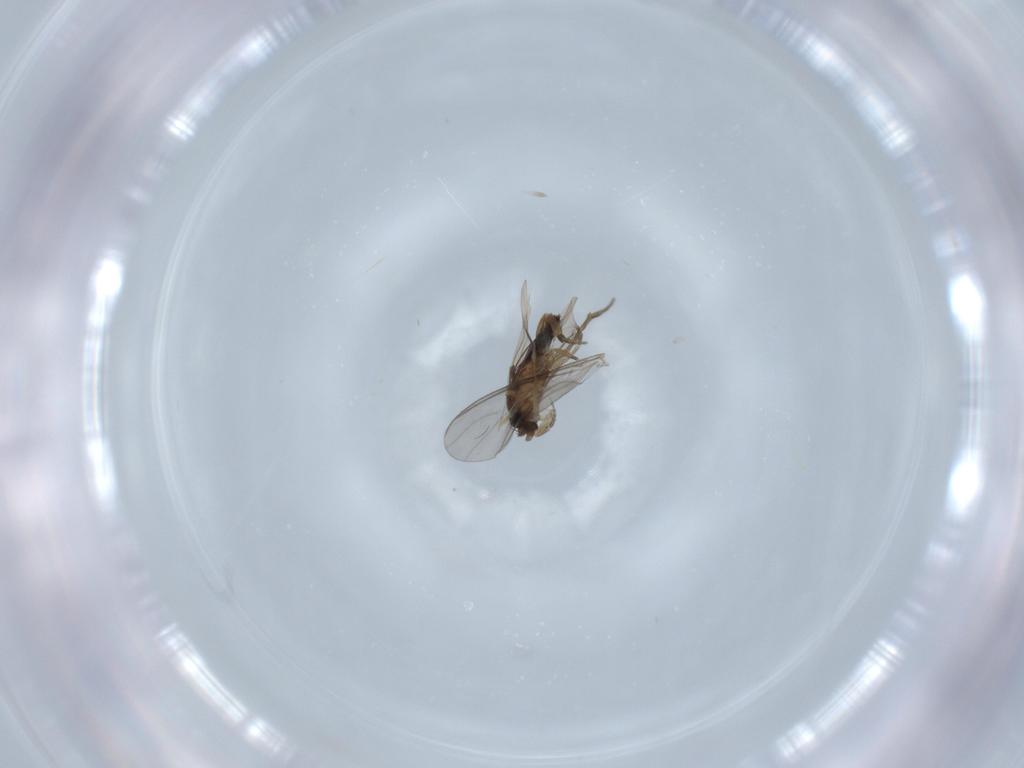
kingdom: Animalia
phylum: Arthropoda
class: Insecta
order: Diptera
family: Phoridae
